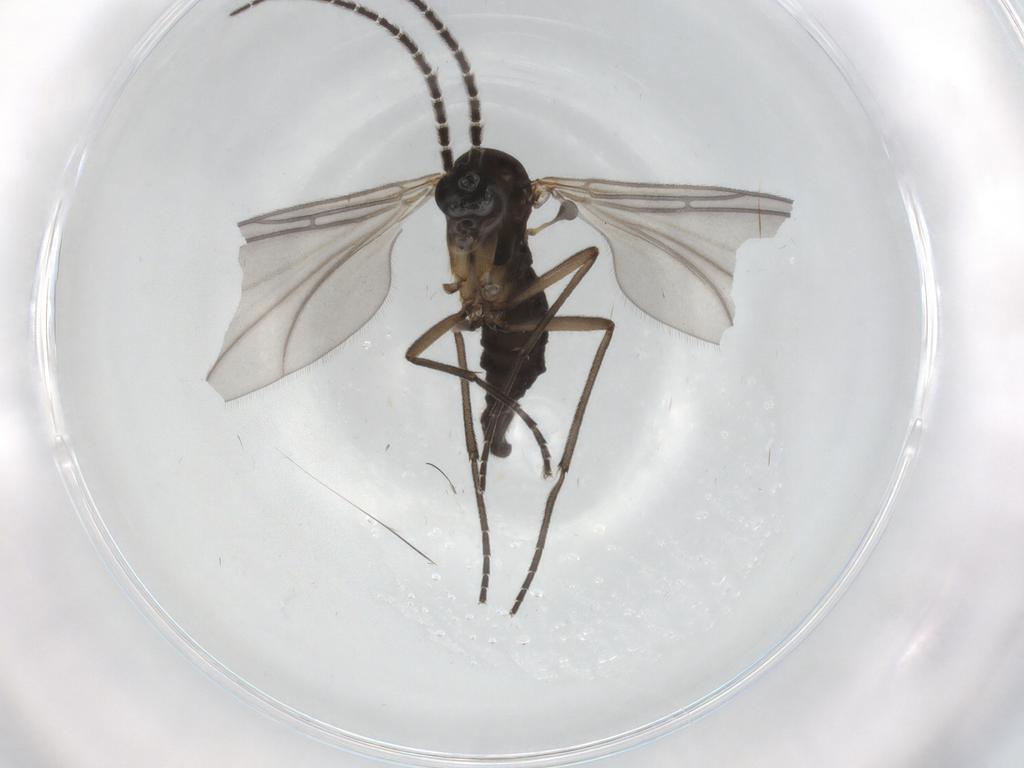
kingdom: Animalia
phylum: Arthropoda
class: Insecta
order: Diptera
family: Sciaridae
